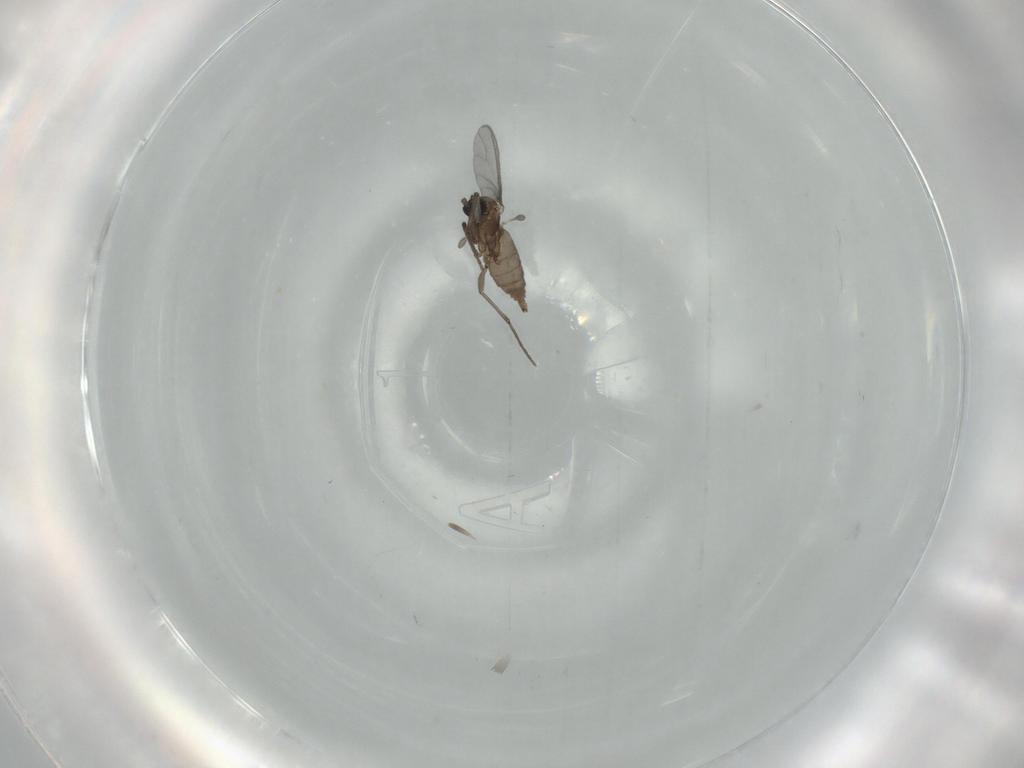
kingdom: Animalia
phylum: Arthropoda
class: Insecta
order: Diptera
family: Sciaridae
